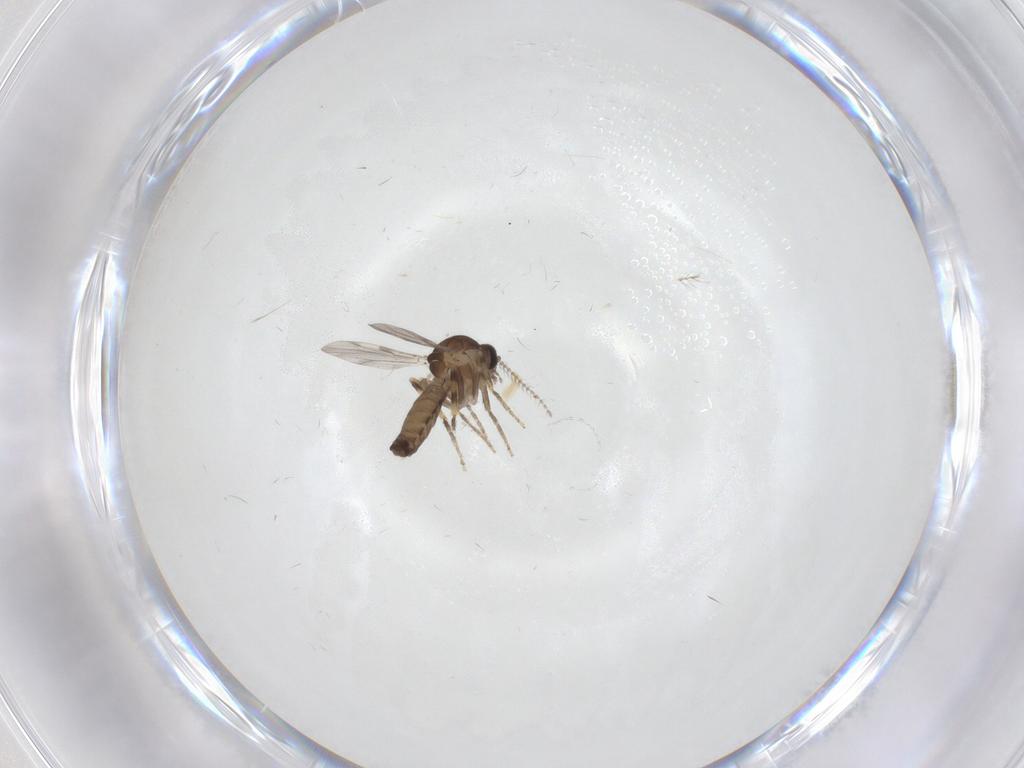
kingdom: Animalia
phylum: Arthropoda
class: Insecta
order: Diptera
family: Ceratopogonidae
